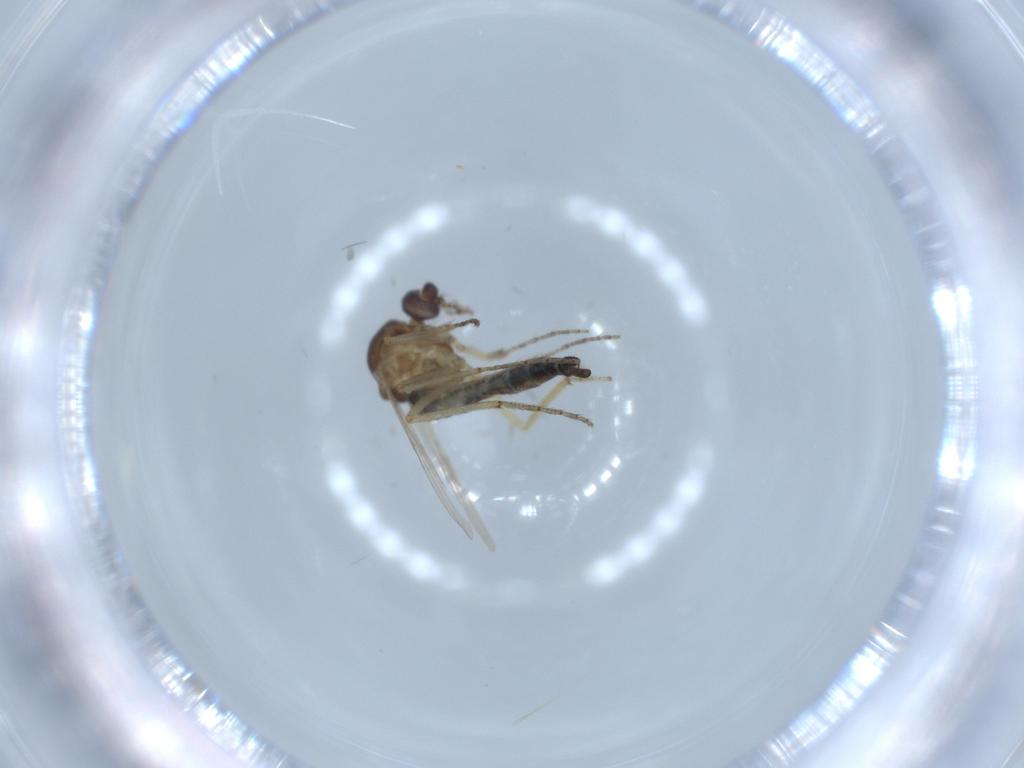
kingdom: Animalia
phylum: Arthropoda
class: Insecta
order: Diptera
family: Ceratopogonidae
